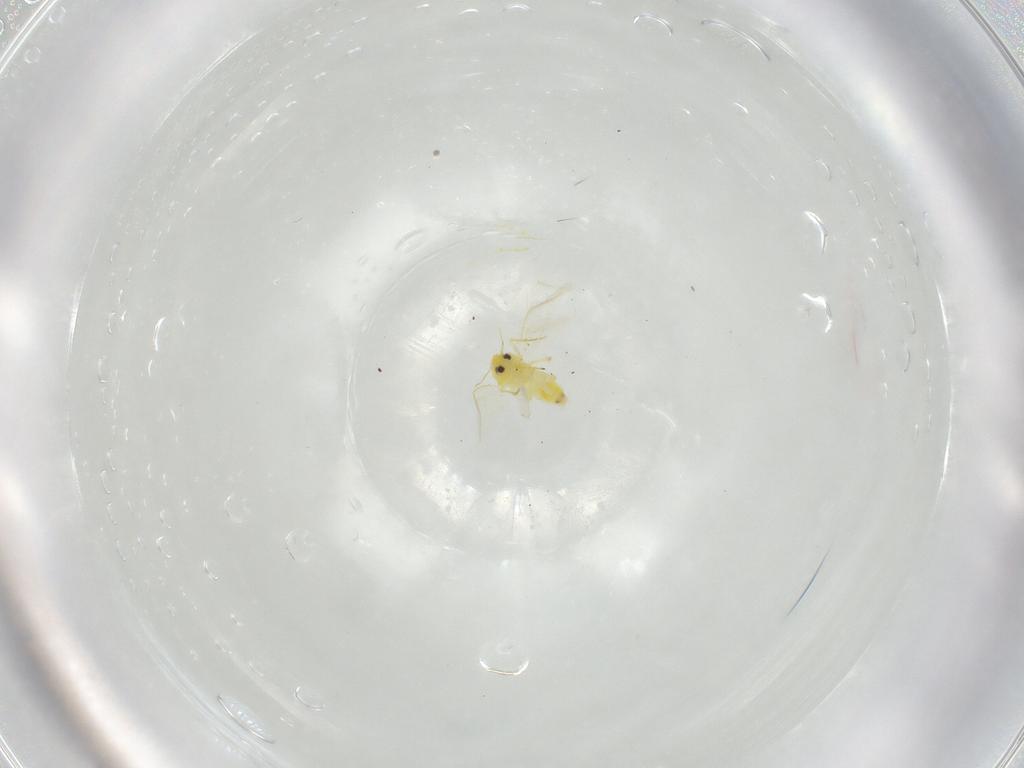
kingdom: Animalia
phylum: Arthropoda
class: Insecta
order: Hemiptera
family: Aleyrodidae
